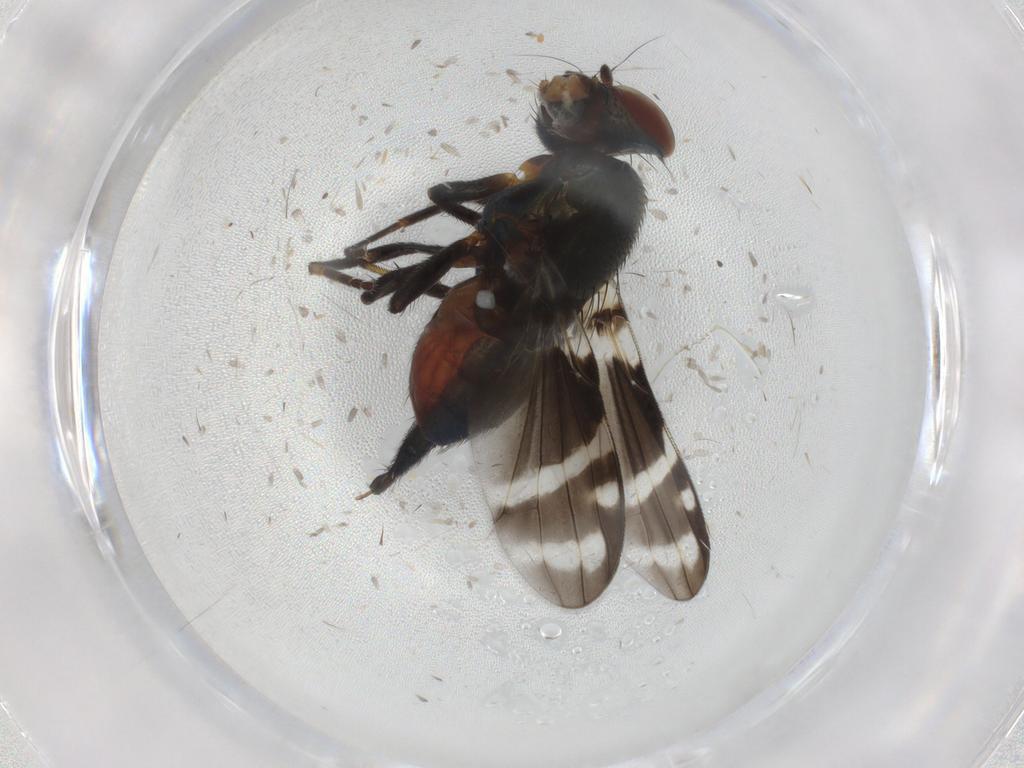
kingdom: Animalia
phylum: Arthropoda
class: Insecta
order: Diptera
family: Ulidiidae
